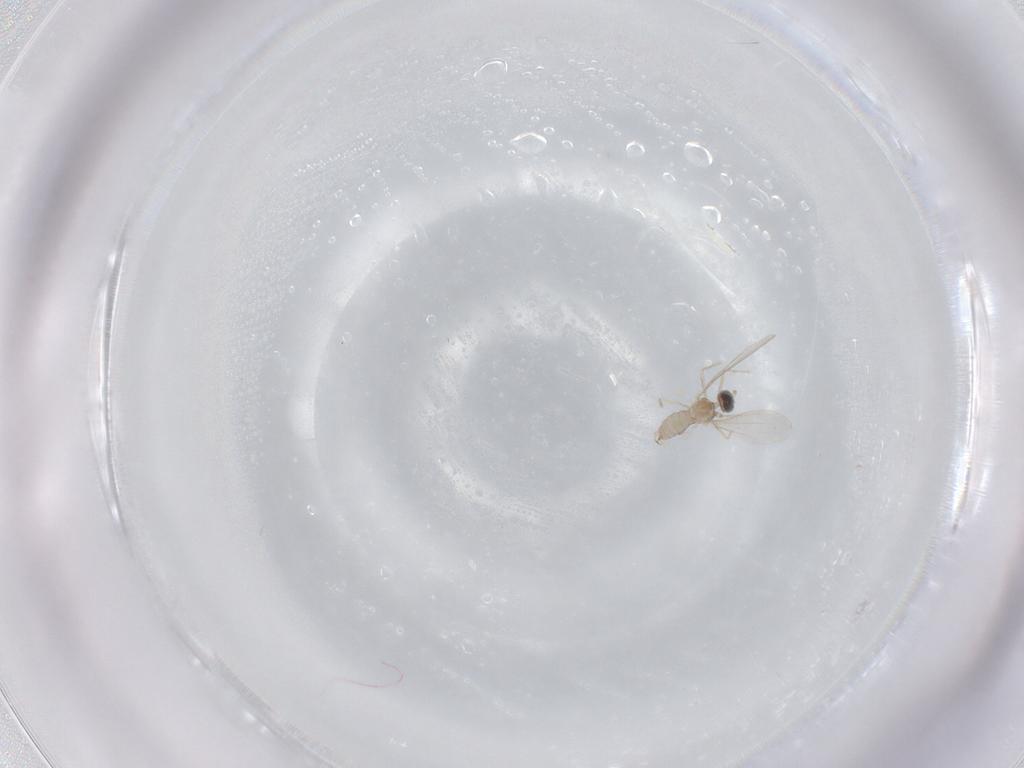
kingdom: Animalia
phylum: Arthropoda
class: Insecta
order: Diptera
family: Cecidomyiidae
